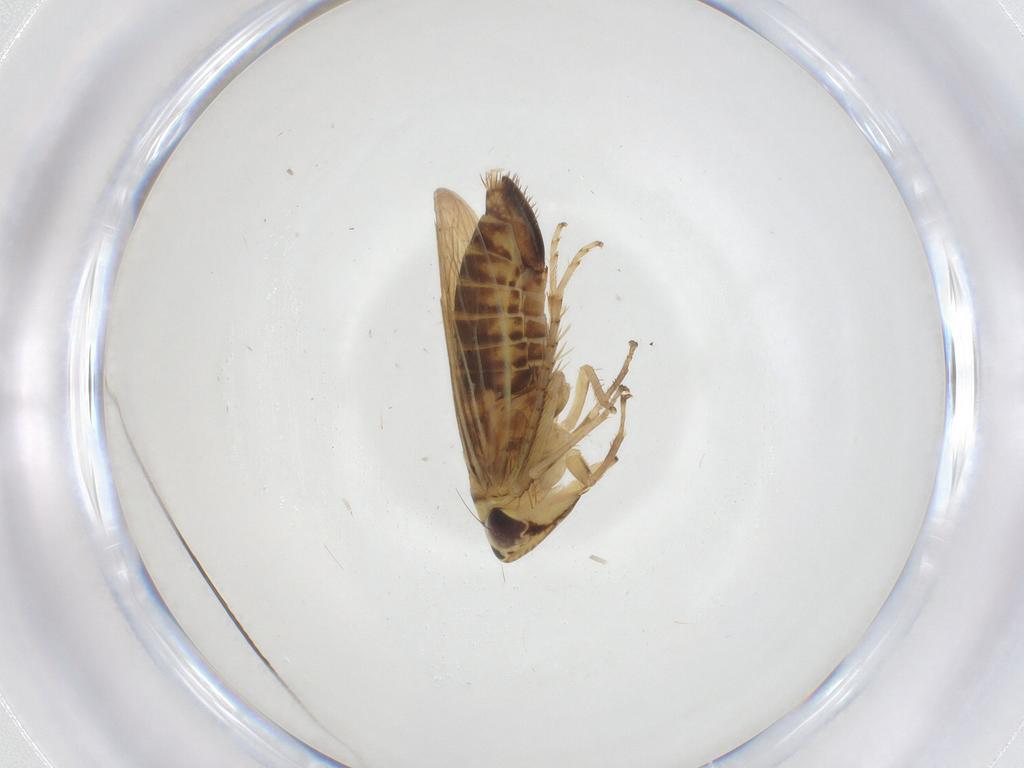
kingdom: Animalia
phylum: Arthropoda
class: Insecta
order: Hemiptera
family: Cicadellidae
